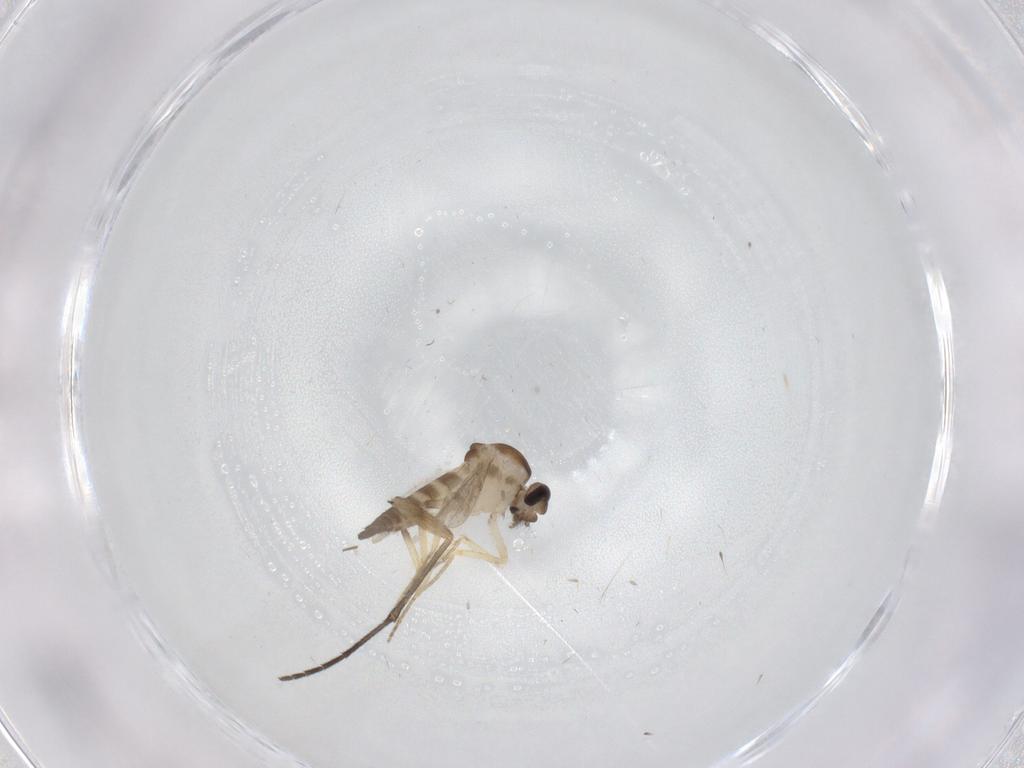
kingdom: Animalia
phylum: Arthropoda
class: Insecta
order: Diptera
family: Ceratopogonidae
